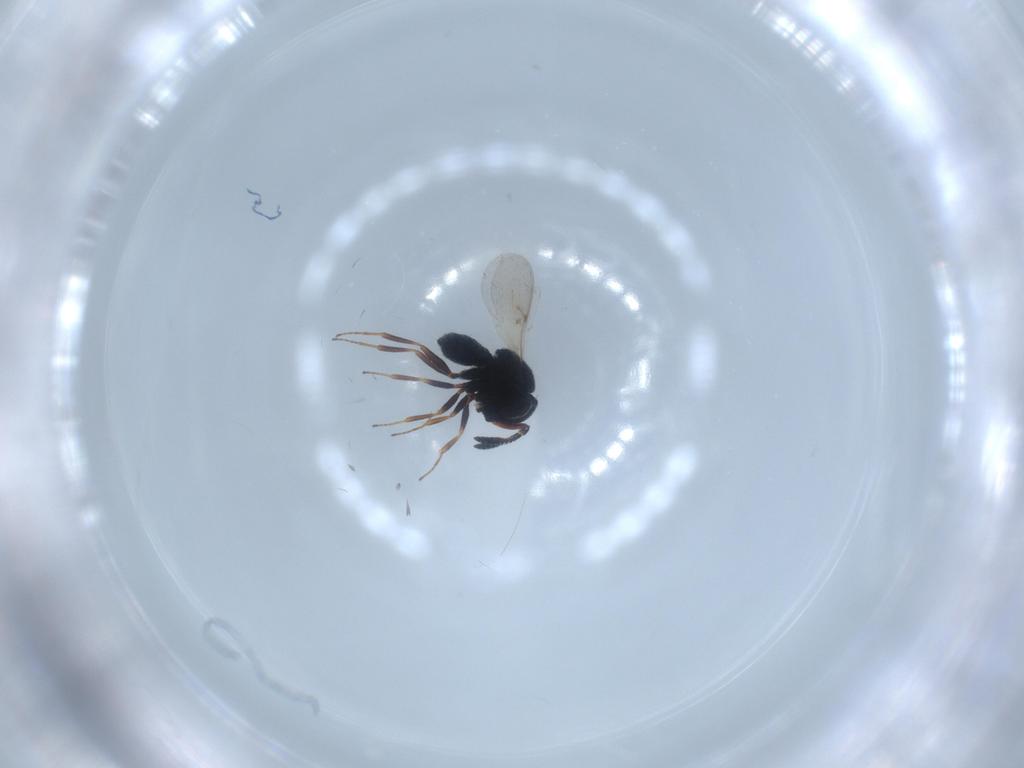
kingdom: Animalia
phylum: Arthropoda
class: Insecta
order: Hymenoptera
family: Scelionidae
